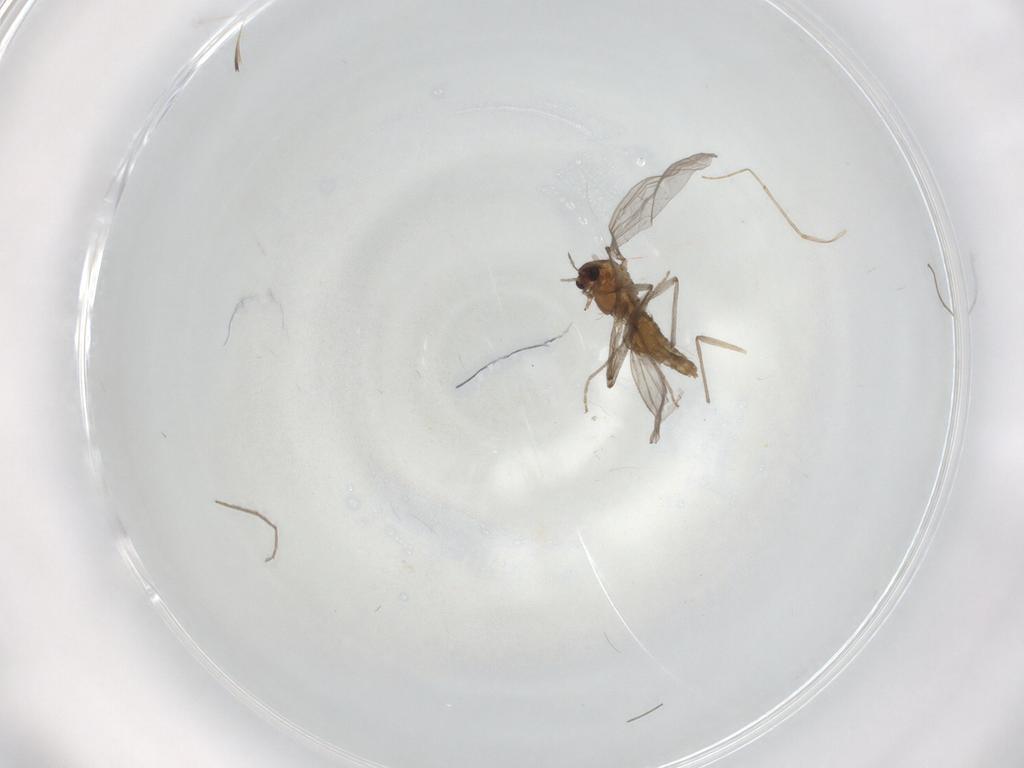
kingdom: Animalia
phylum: Arthropoda
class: Insecta
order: Diptera
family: Chironomidae
